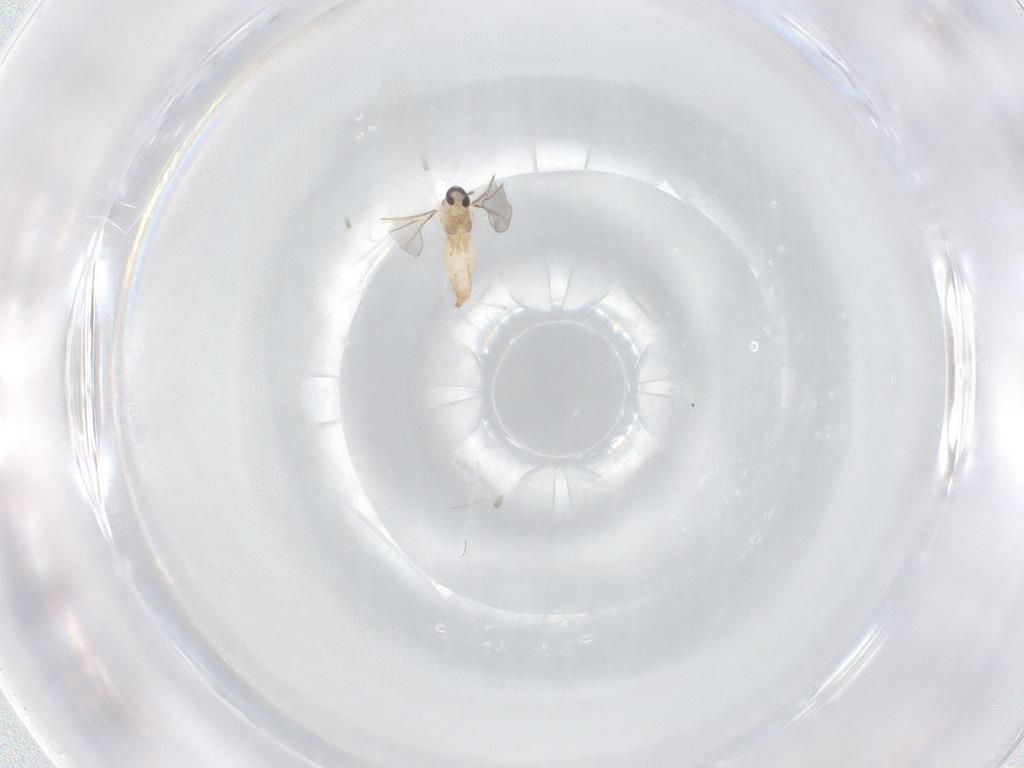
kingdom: Animalia
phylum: Arthropoda
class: Insecta
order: Diptera
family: Cecidomyiidae
